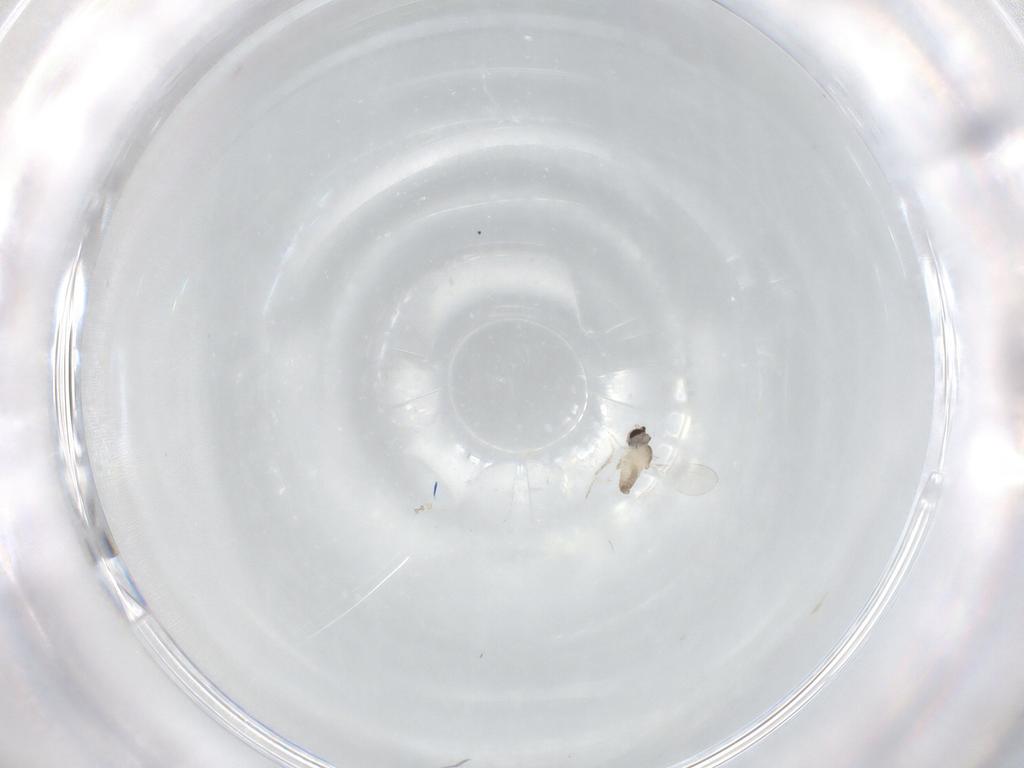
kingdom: Animalia
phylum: Arthropoda
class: Insecta
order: Diptera
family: Cecidomyiidae
